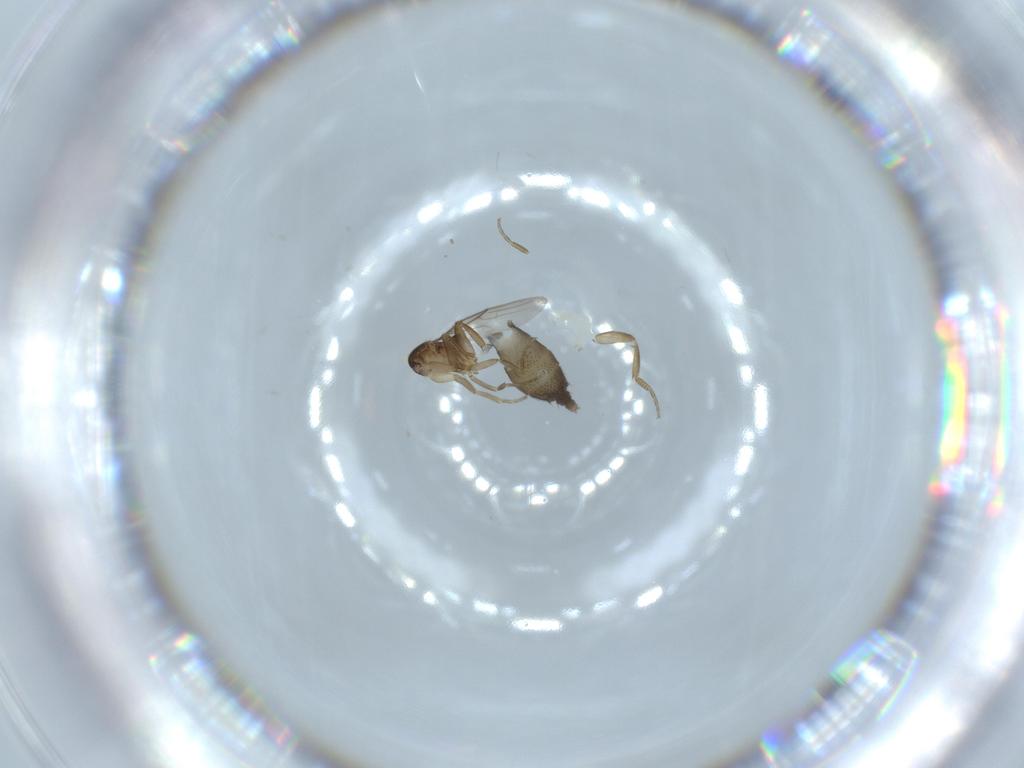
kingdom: Animalia
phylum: Arthropoda
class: Insecta
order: Diptera
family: Phoridae
